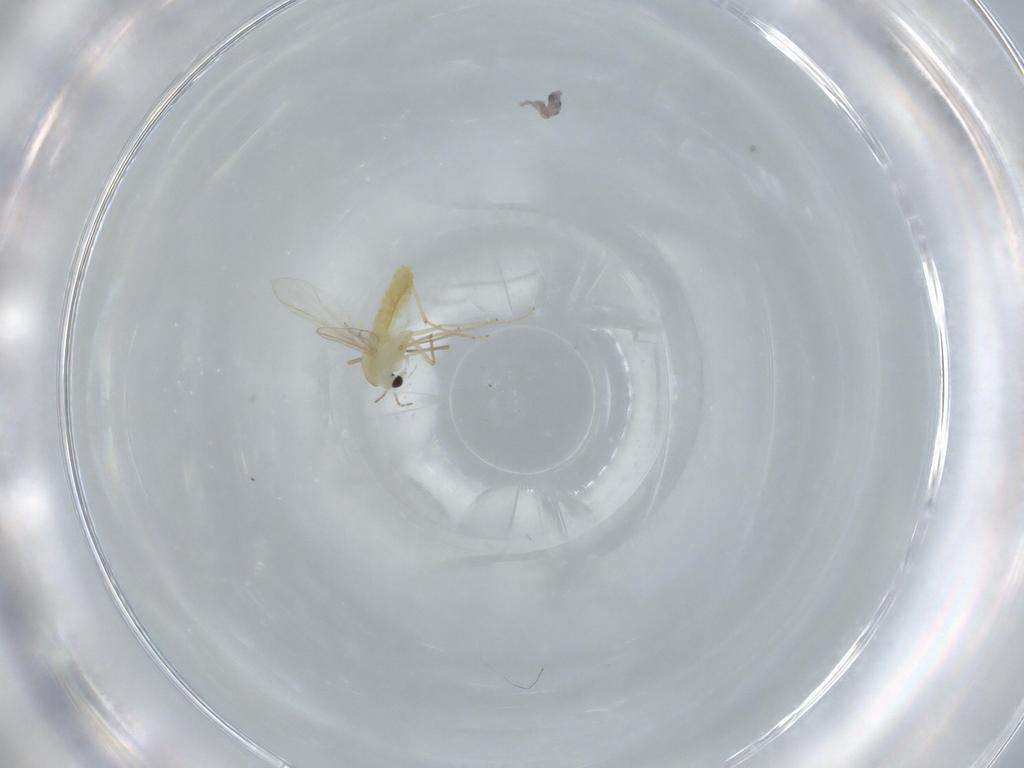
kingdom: Animalia
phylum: Arthropoda
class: Insecta
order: Diptera
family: Chironomidae
